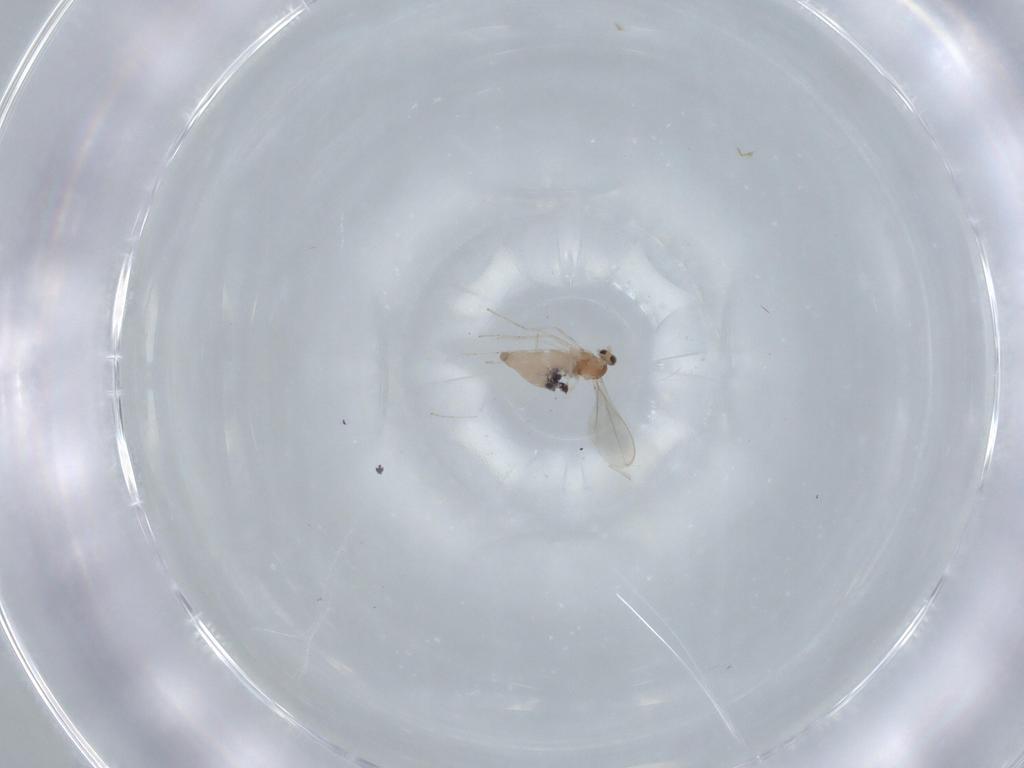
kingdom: Animalia
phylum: Arthropoda
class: Insecta
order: Diptera
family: Cecidomyiidae
